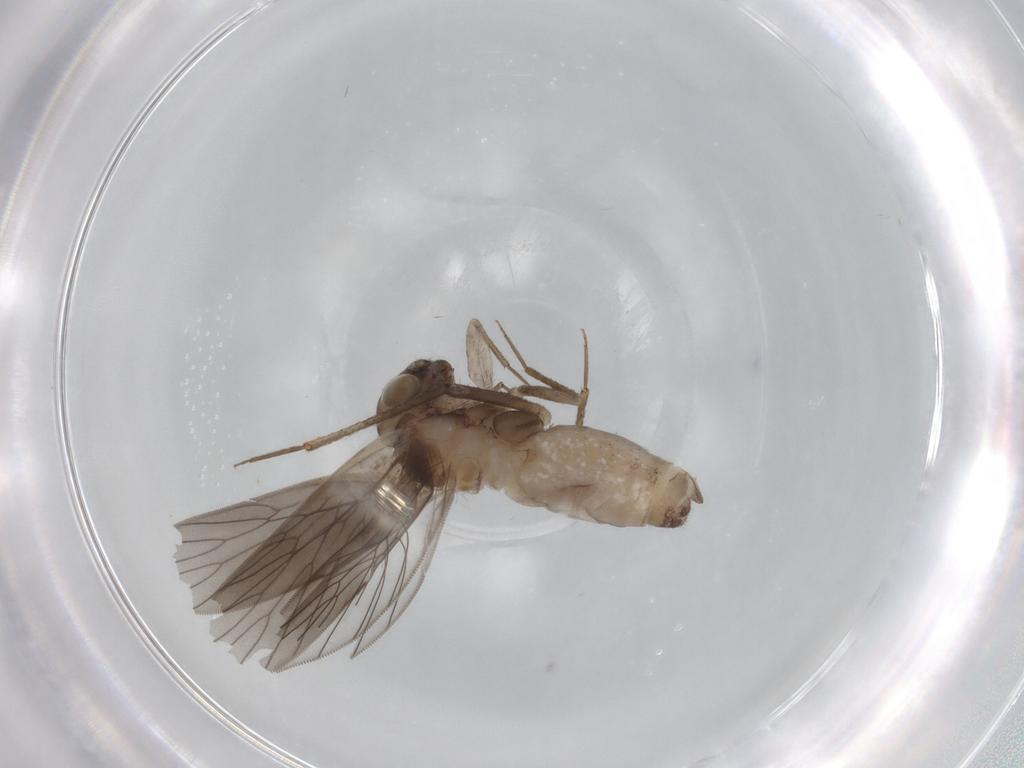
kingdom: Animalia
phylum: Arthropoda
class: Insecta
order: Psocodea
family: Lepidopsocidae
